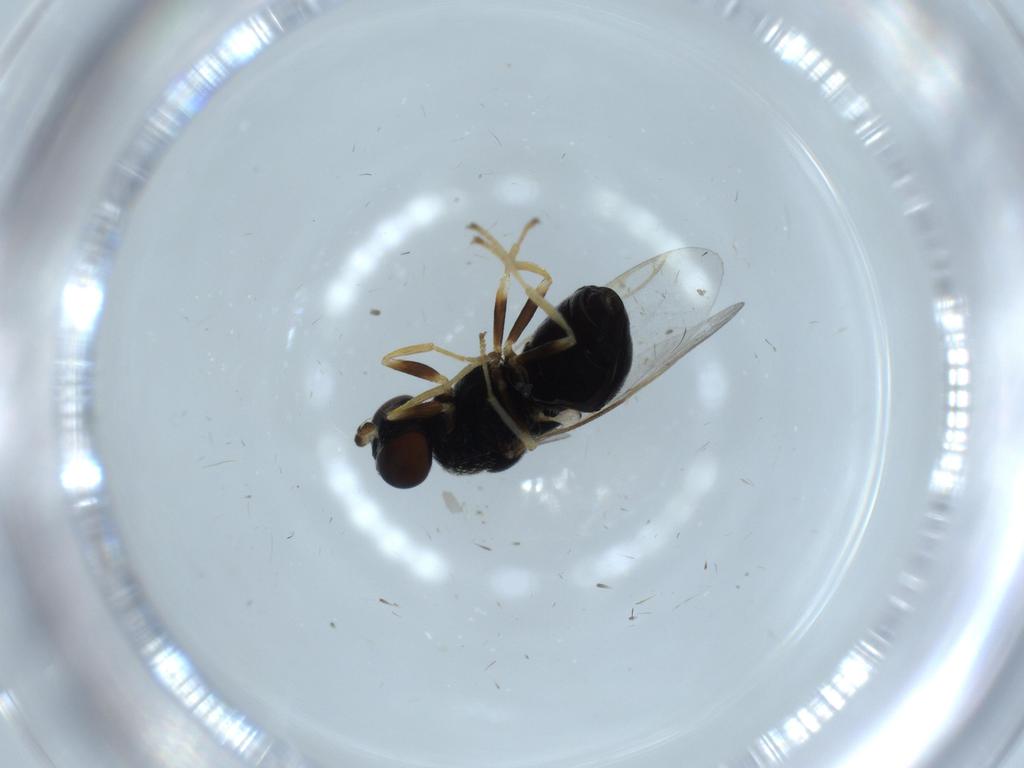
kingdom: Animalia
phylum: Arthropoda
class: Insecta
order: Diptera
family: Stratiomyidae
